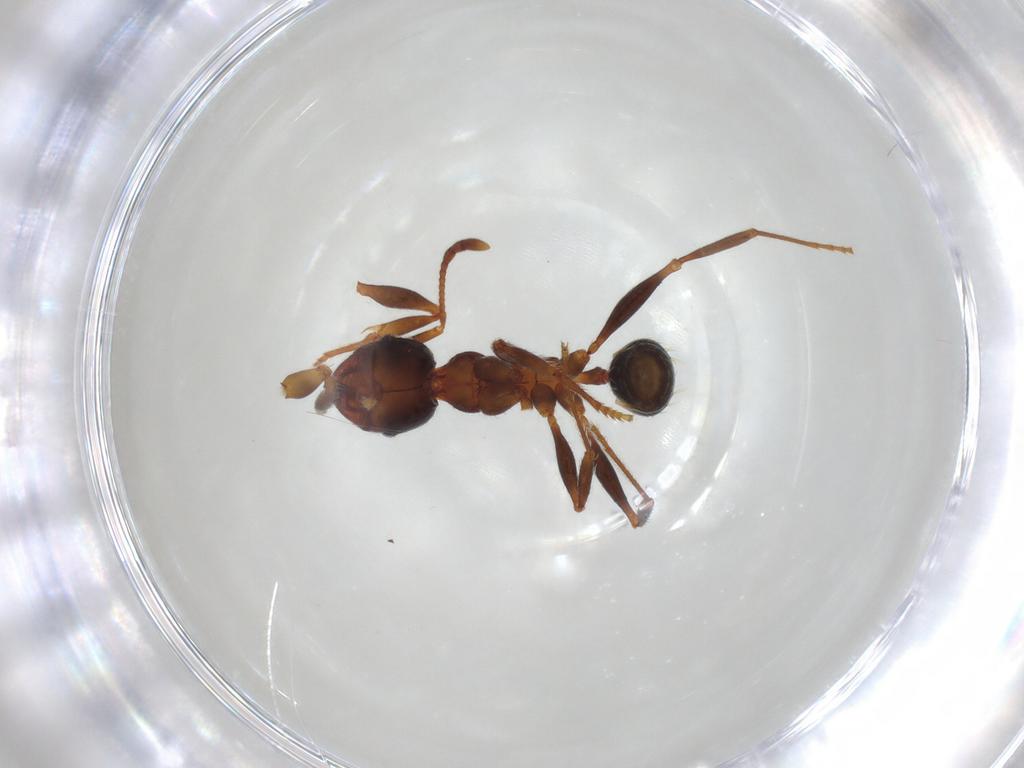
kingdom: Animalia
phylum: Arthropoda
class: Insecta
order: Diptera
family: Chironomidae
